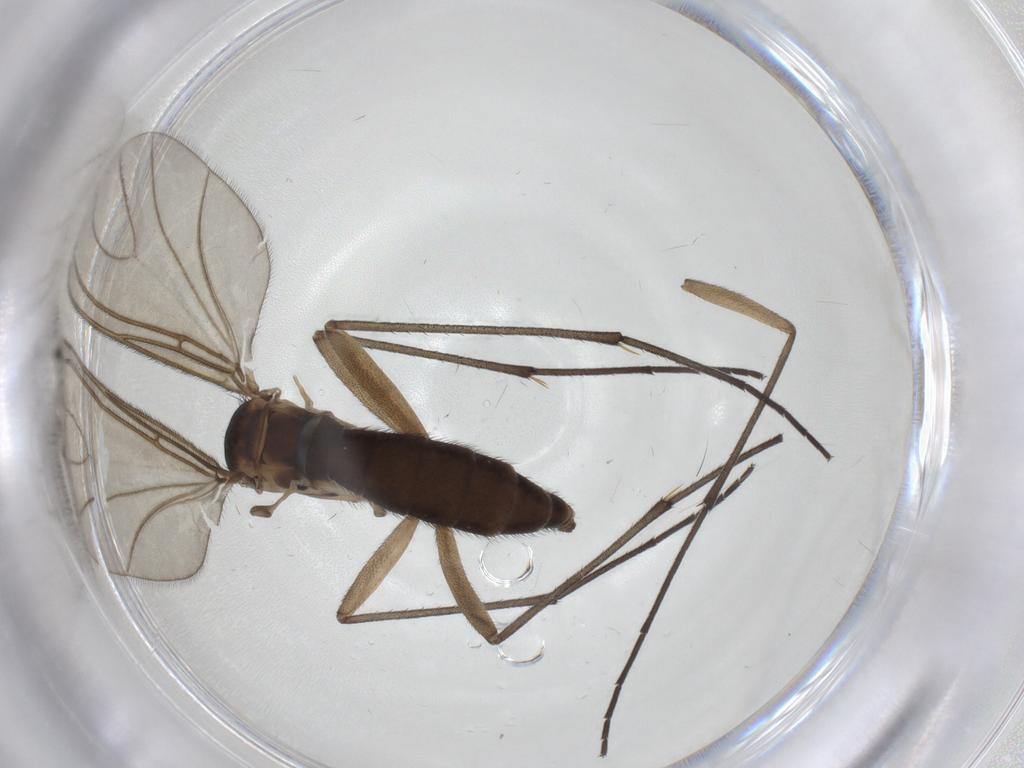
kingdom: Animalia
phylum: Arthropoda
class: Insecta
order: Diptera
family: Sciaridae
